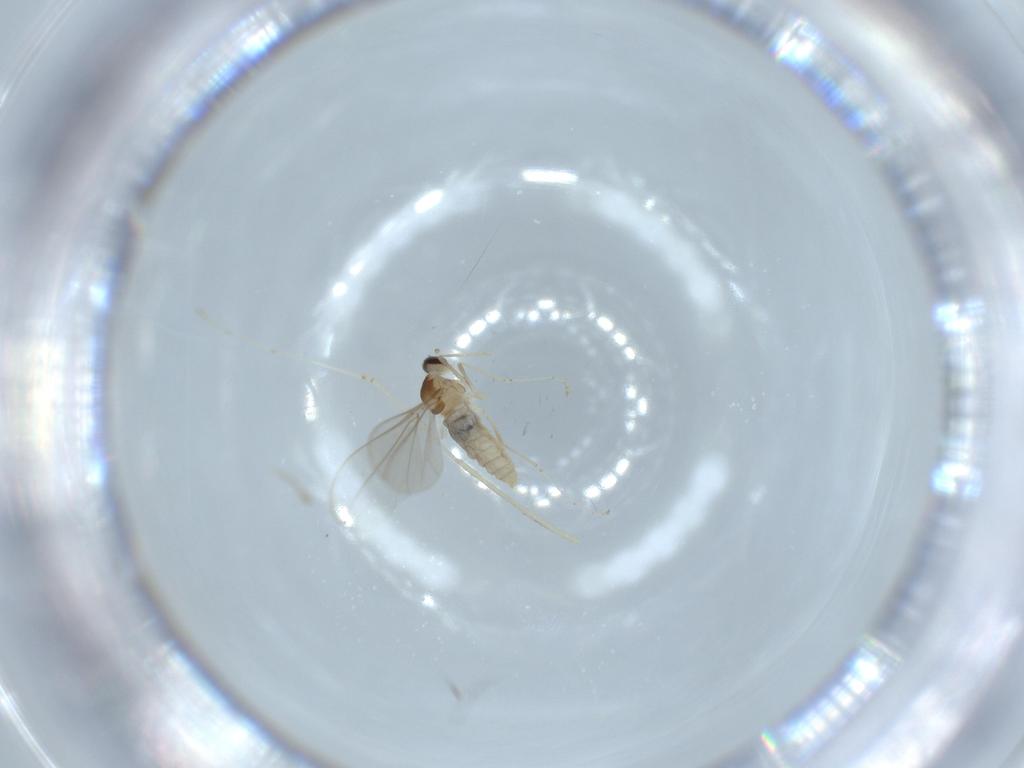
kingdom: Animalia
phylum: Arthropoda
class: Insecta
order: Diptera
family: Cecidomyiidae
